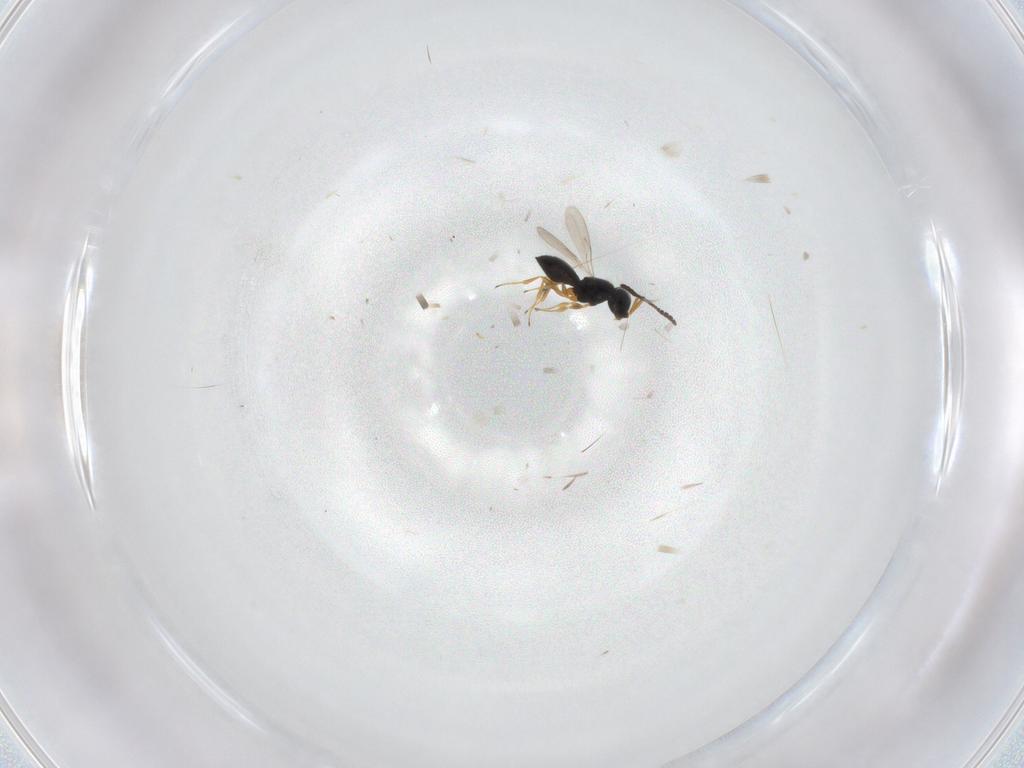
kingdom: Animalia
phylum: Arthropoda
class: Insecta
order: Hymenoptera
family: Scelionidae
